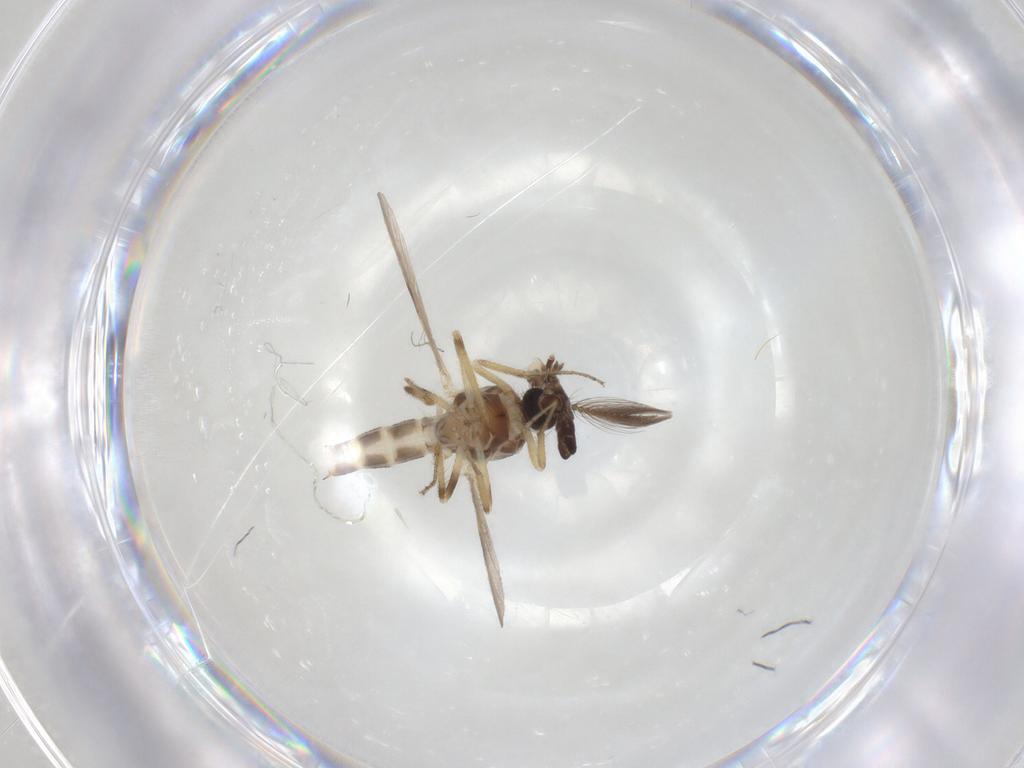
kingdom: Animalia
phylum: Arthropoda
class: Insecta
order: Diptera
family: Ceratopogonidae
